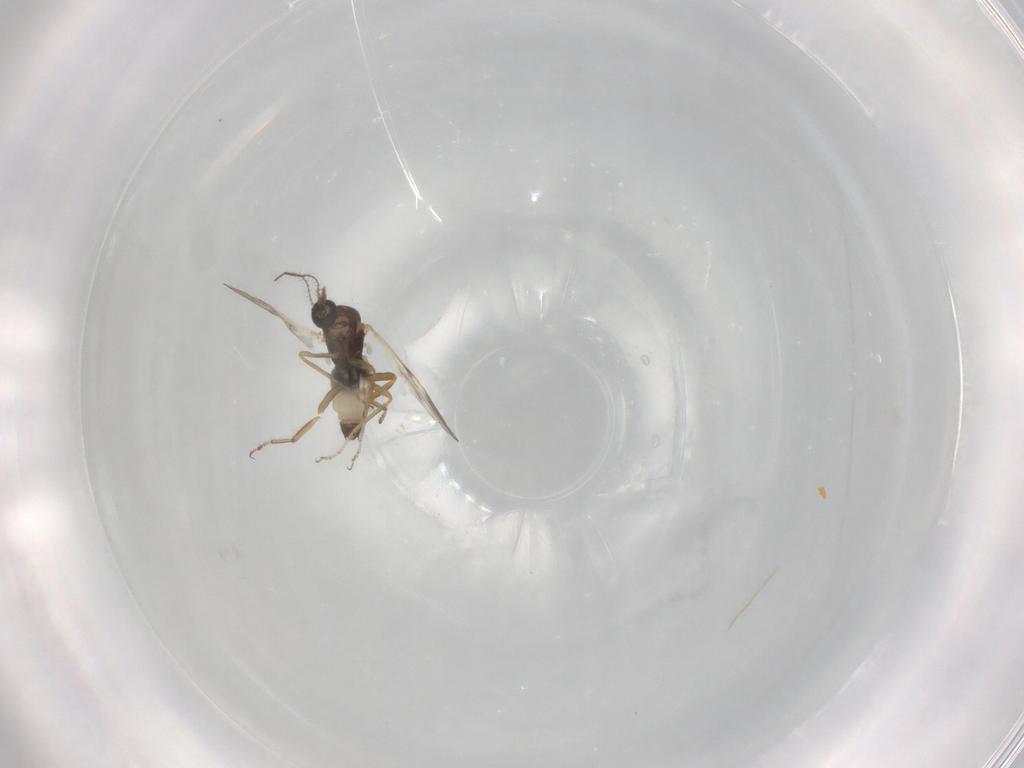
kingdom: Animalia
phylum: Arthropoda
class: Insecta
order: Diptera
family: Ceratopogonidae
